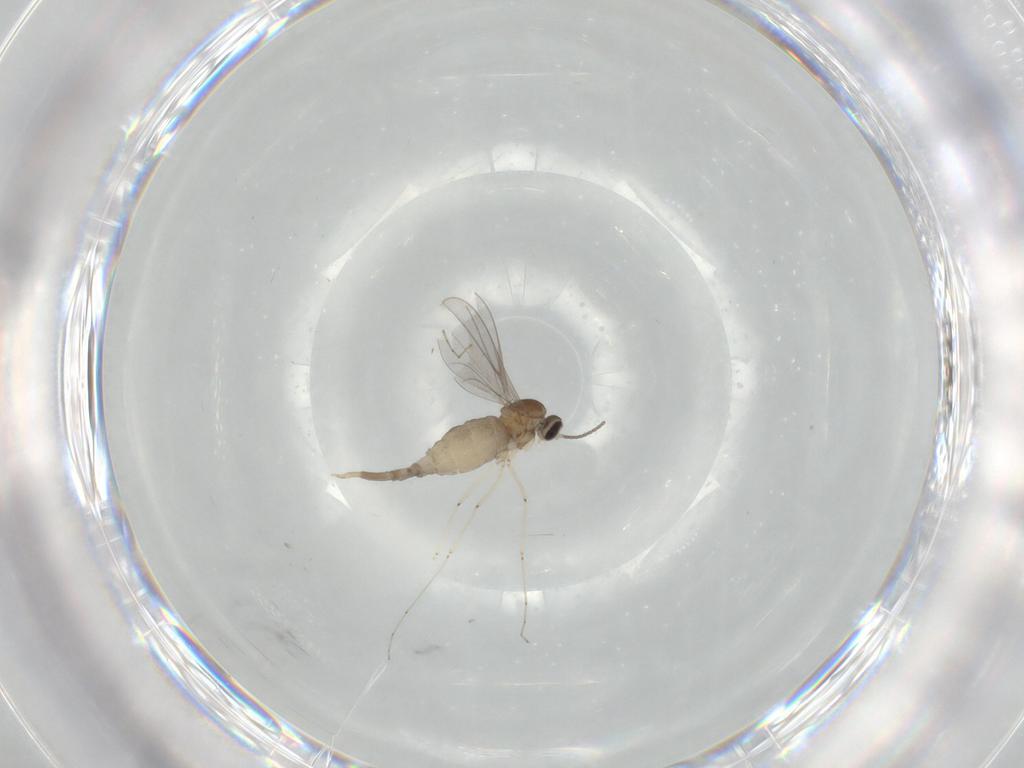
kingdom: Animalia
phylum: Arthropoda
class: Insecta
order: Diptera
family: Cecidomyiidae
